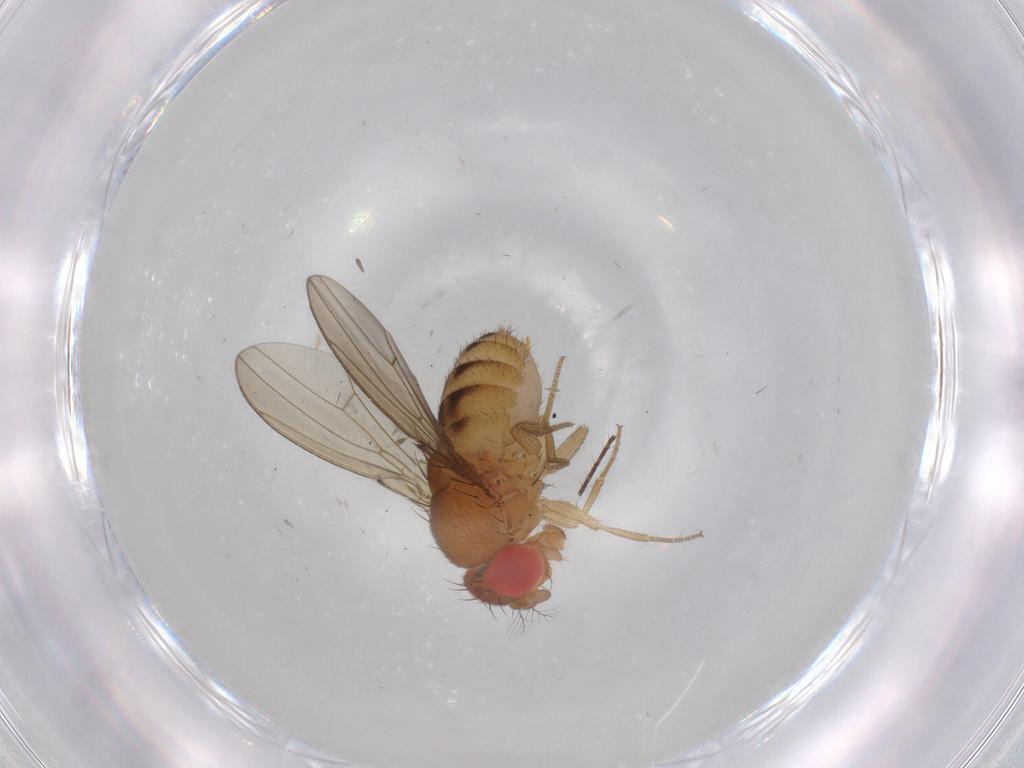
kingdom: Animalia
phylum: Arthropoda
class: Insecta
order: Diptera
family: Drosophilidae
